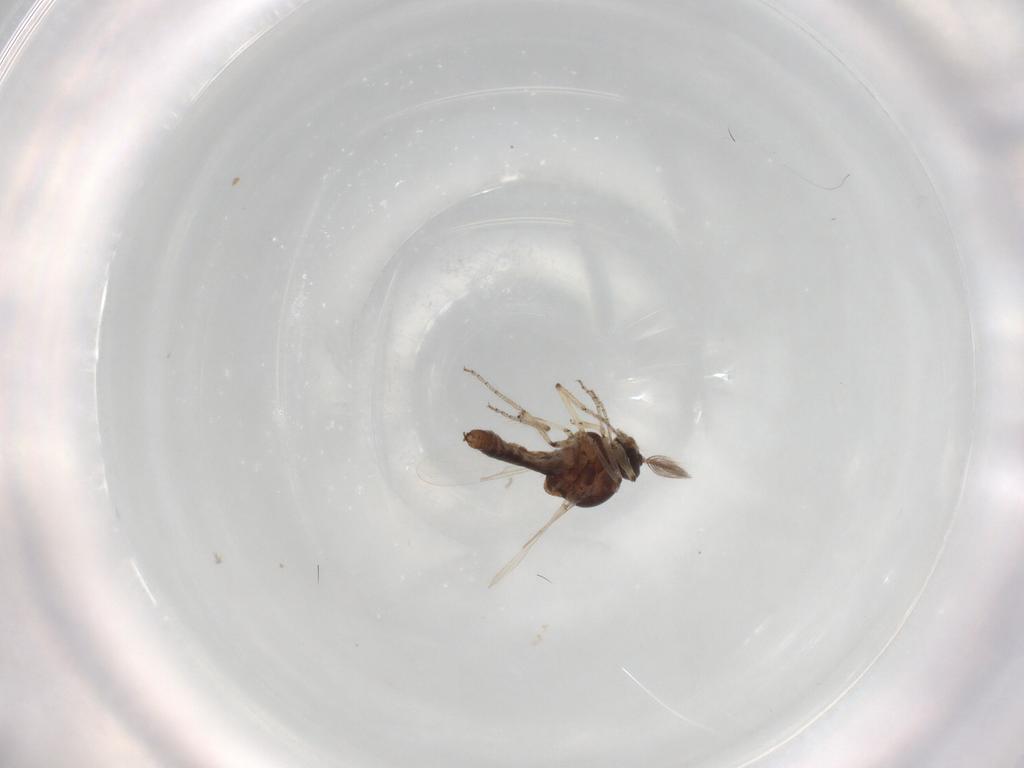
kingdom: Animalia
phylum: Arthropoda
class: Insecta
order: Diptera
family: Ceratopogonidae
